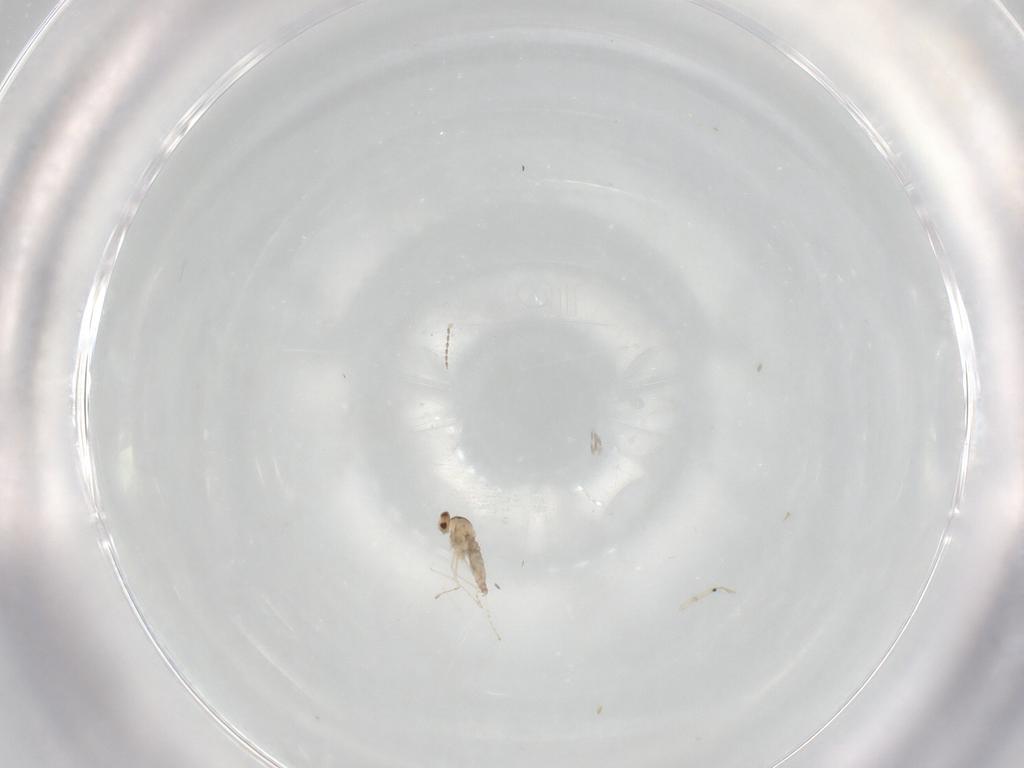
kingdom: Animalia
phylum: Arthropoda
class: Insecta
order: Diptera
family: Cecidomyiidae
